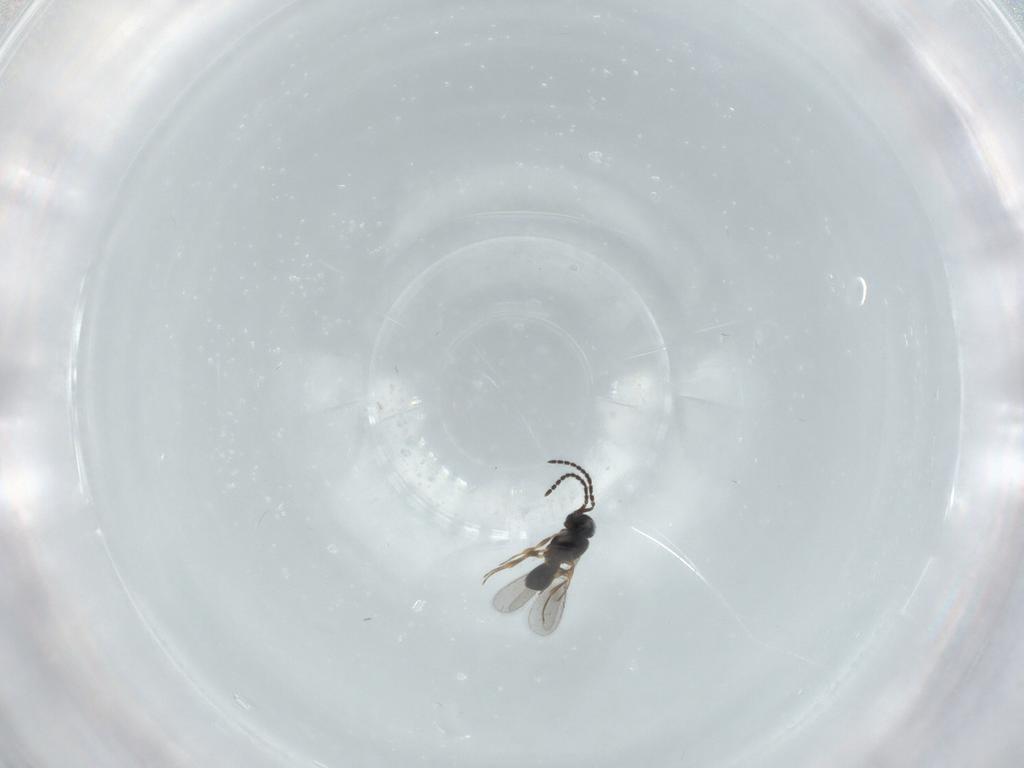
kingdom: Animalia
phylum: Arthropoda
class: Insecta
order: Hymenoptera
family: Scelionidae
